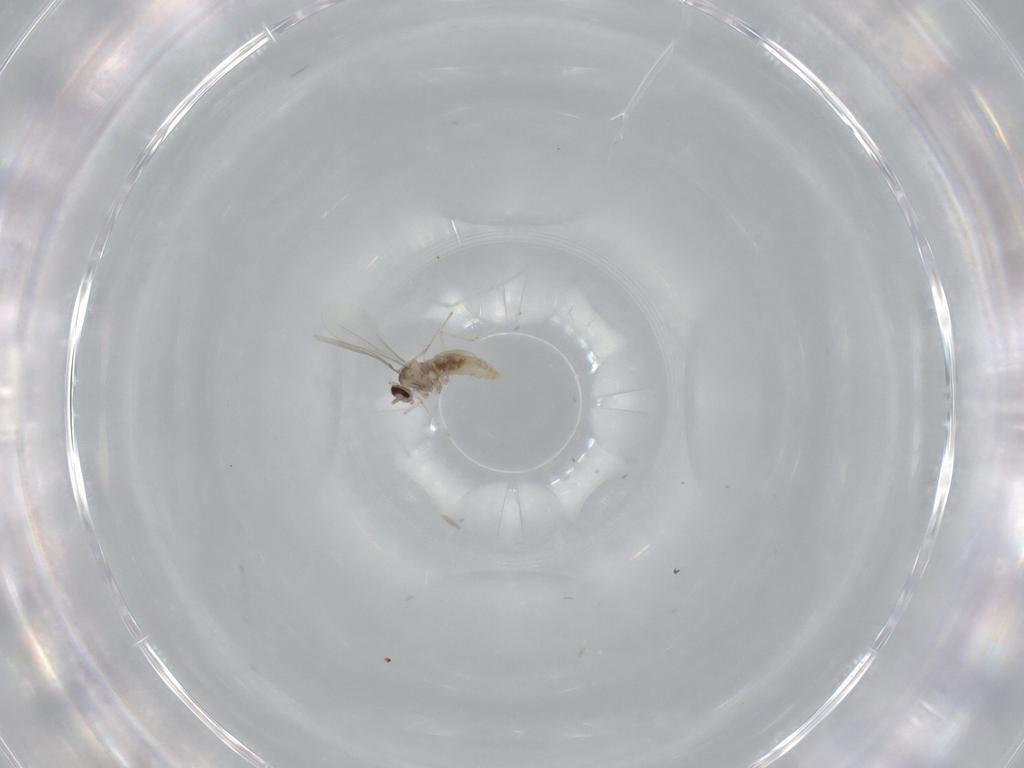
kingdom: Animalia
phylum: Arthropoda
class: Insecta
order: Diptera
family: Cecidomyiidae
